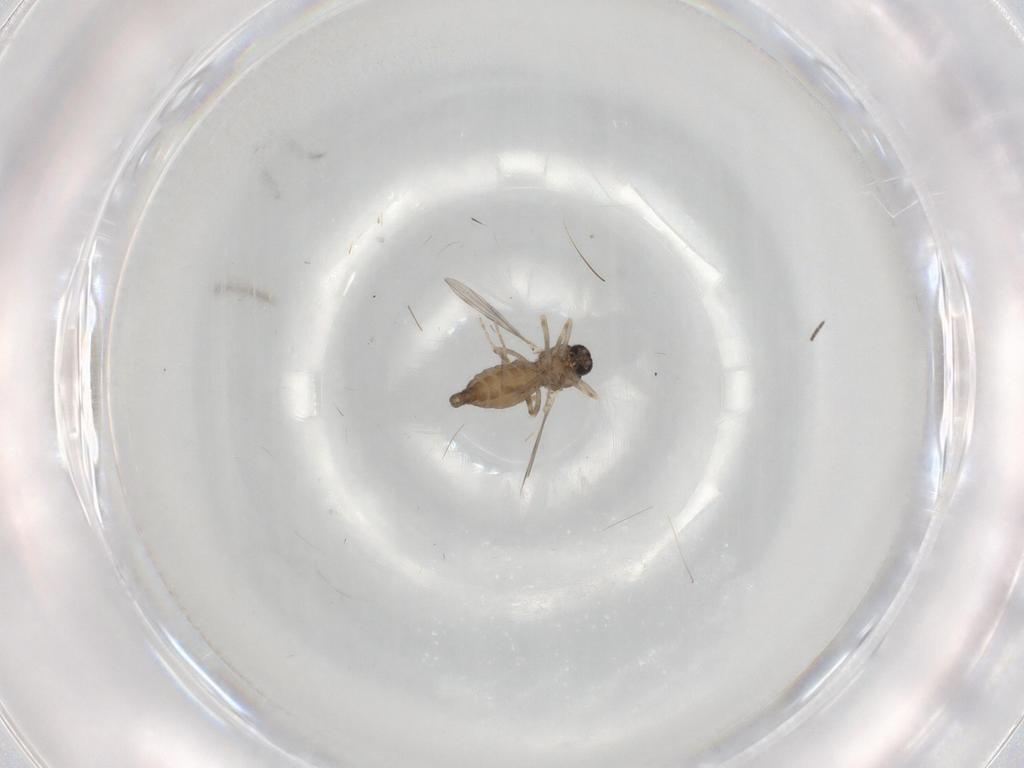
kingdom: Animalia
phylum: Arthropoda
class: Insecta
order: Diptera
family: Ceratopogonidae
